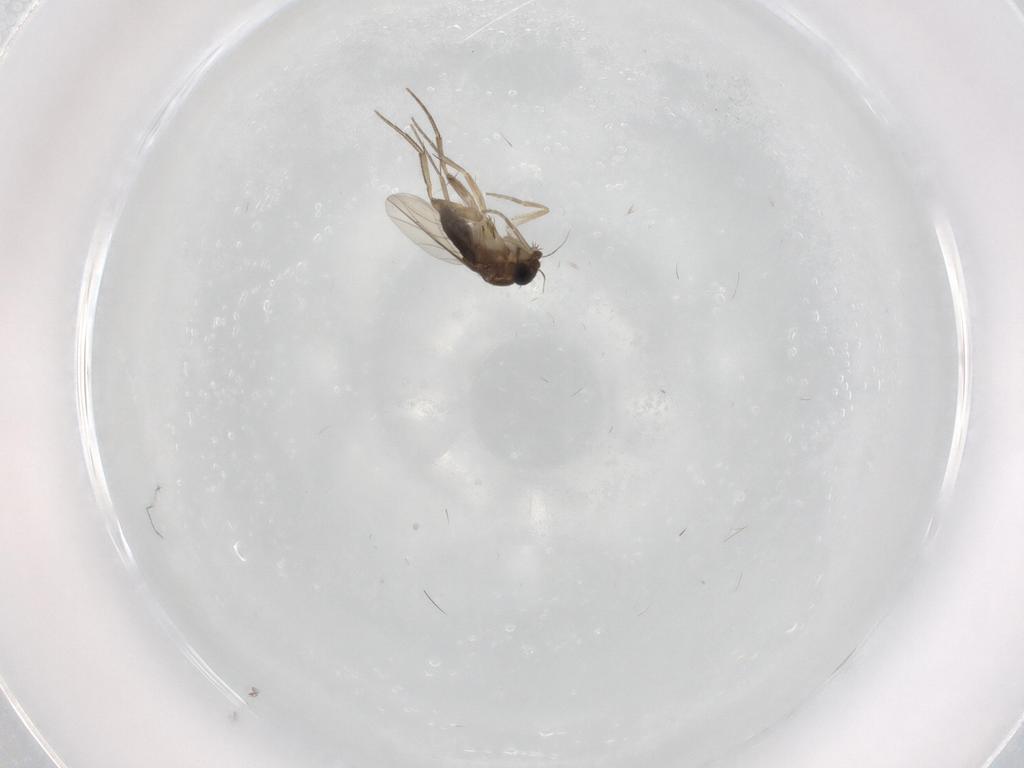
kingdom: Animalia
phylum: Arthropoda
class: Insecta
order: Diptera
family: Phoridae
